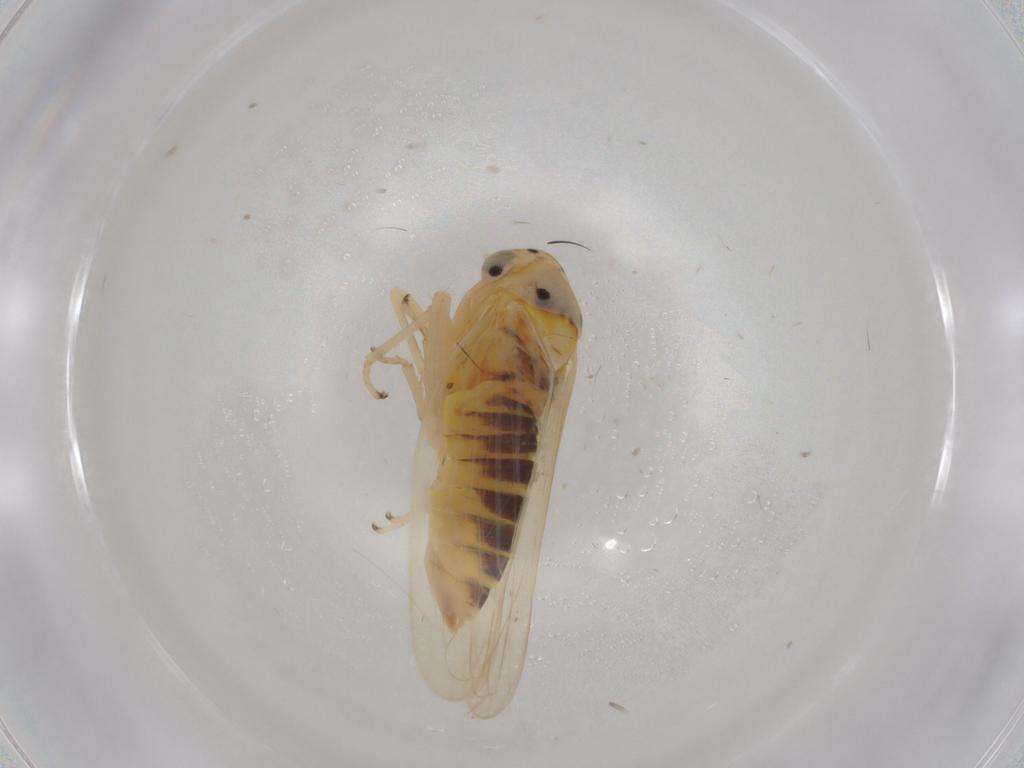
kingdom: Animalia
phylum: Arthropoda
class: Insecta
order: Hemiptera
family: Cicadellidae
